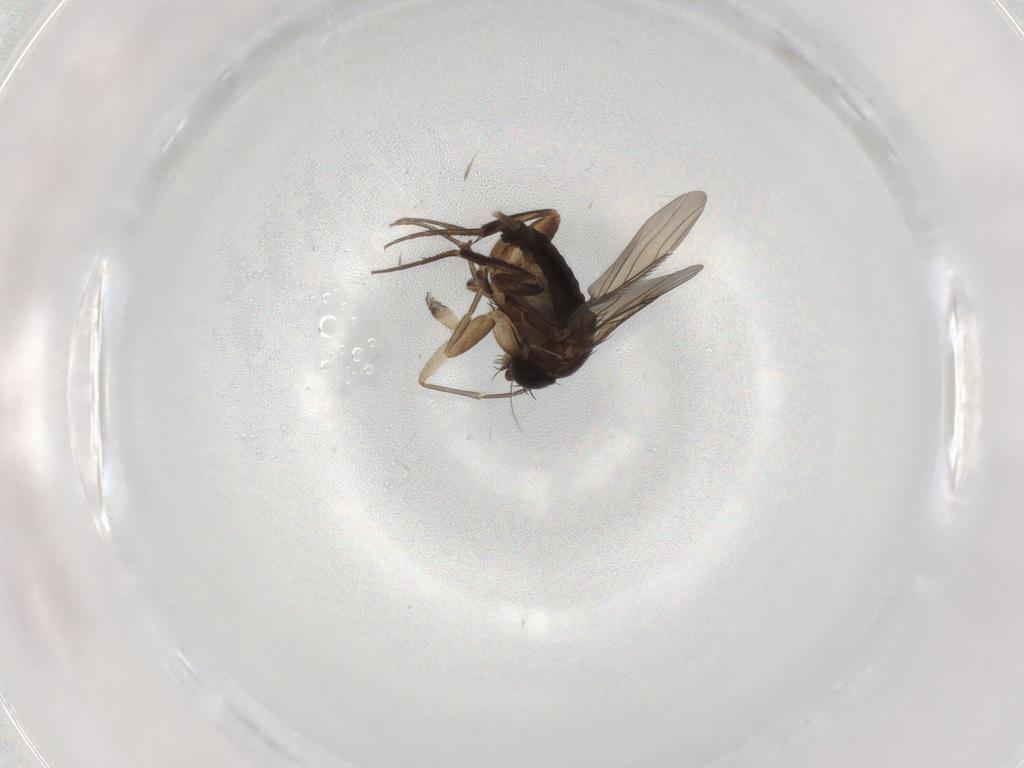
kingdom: Animalia
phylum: Arthropoda
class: Insecta
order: Diptera
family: Phoridae
